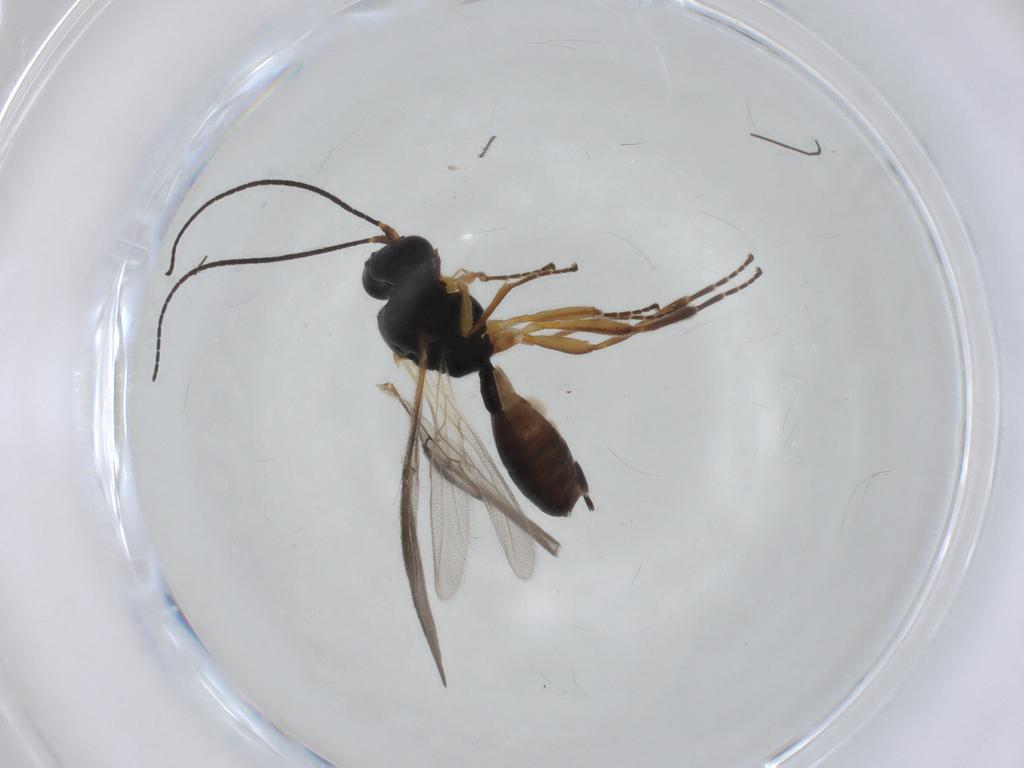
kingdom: Animalia
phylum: Arthropoda
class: Insecta
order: Hymenoptera
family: Braconidae
